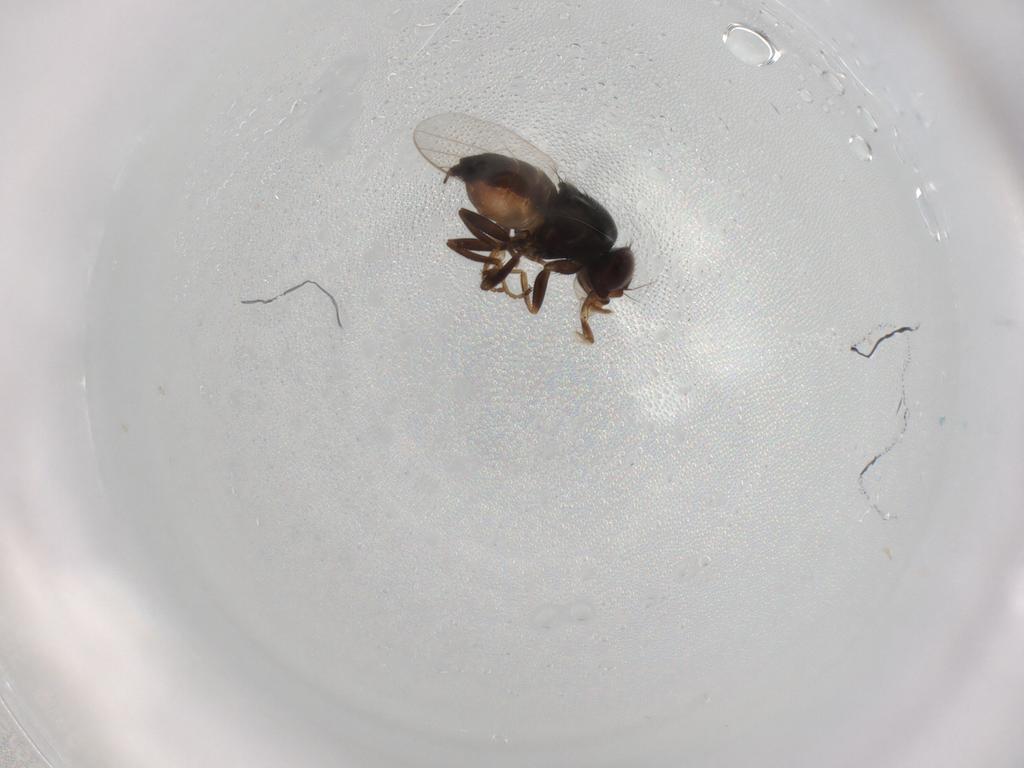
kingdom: Animalia
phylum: Arthropoda
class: Insecta
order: Diptera
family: Chloropidae
